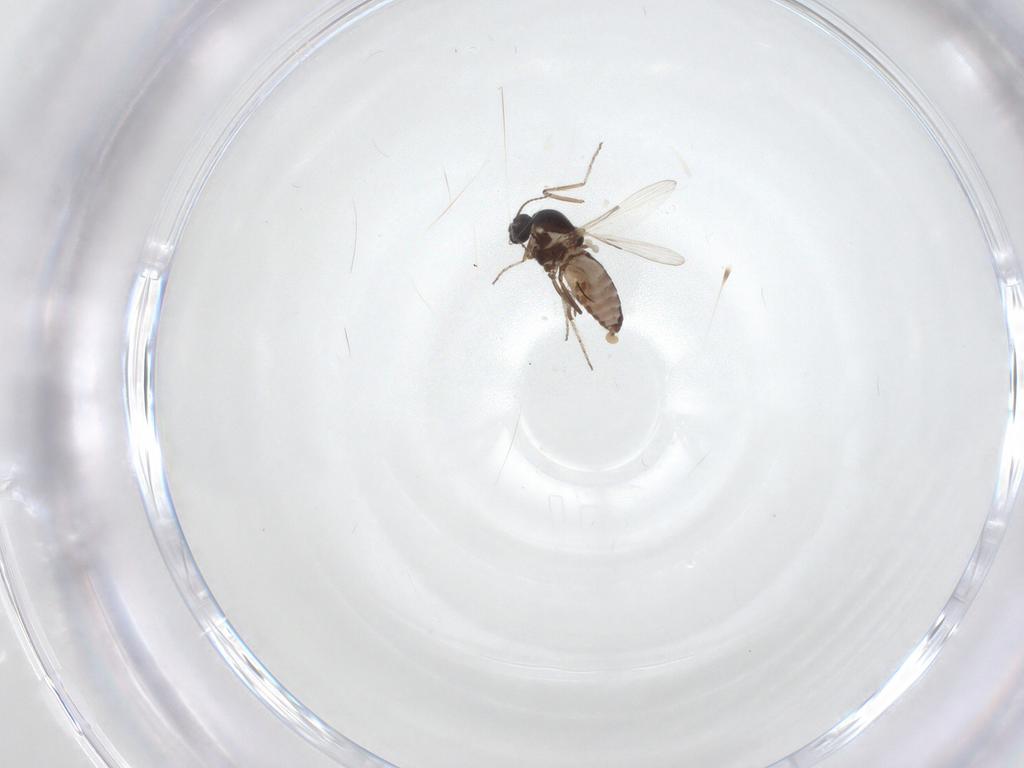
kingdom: Animalia
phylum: Arthropoda
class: Insecta
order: Diptera
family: Ceratopogonidae
